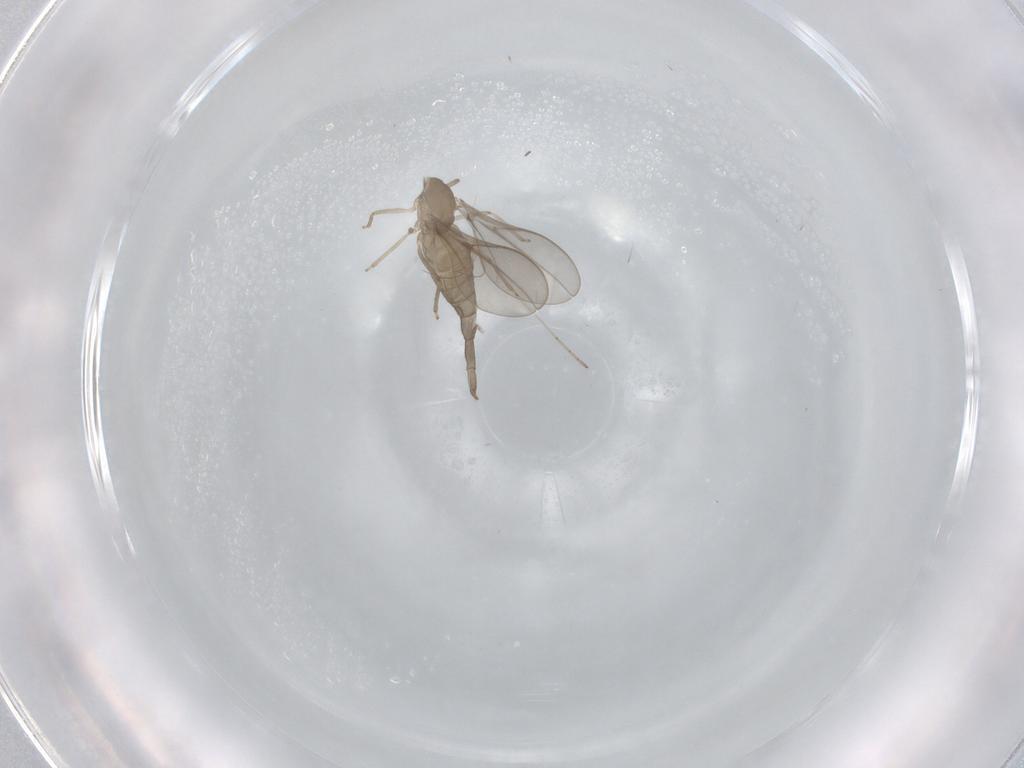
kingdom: Animalia
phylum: Arthropoda
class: Insecta
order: Diptera
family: Cecidomyiidae
